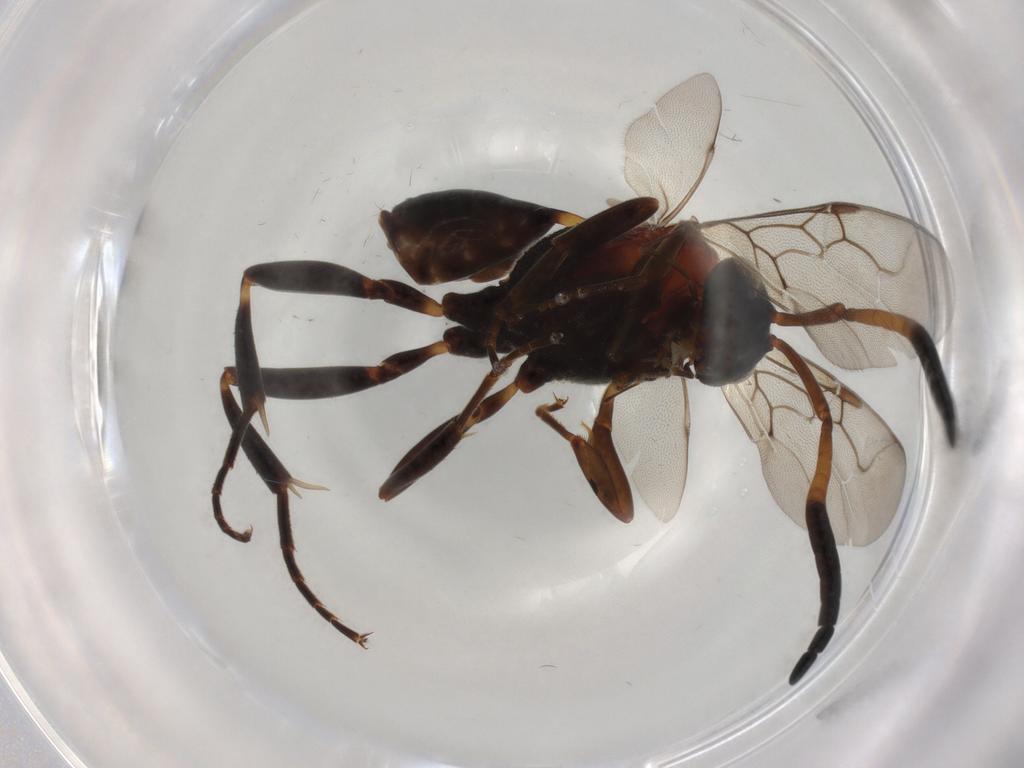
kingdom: Animalia
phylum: Arthropoda
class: Insecta
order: Hymenoptera
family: Evaniidae
